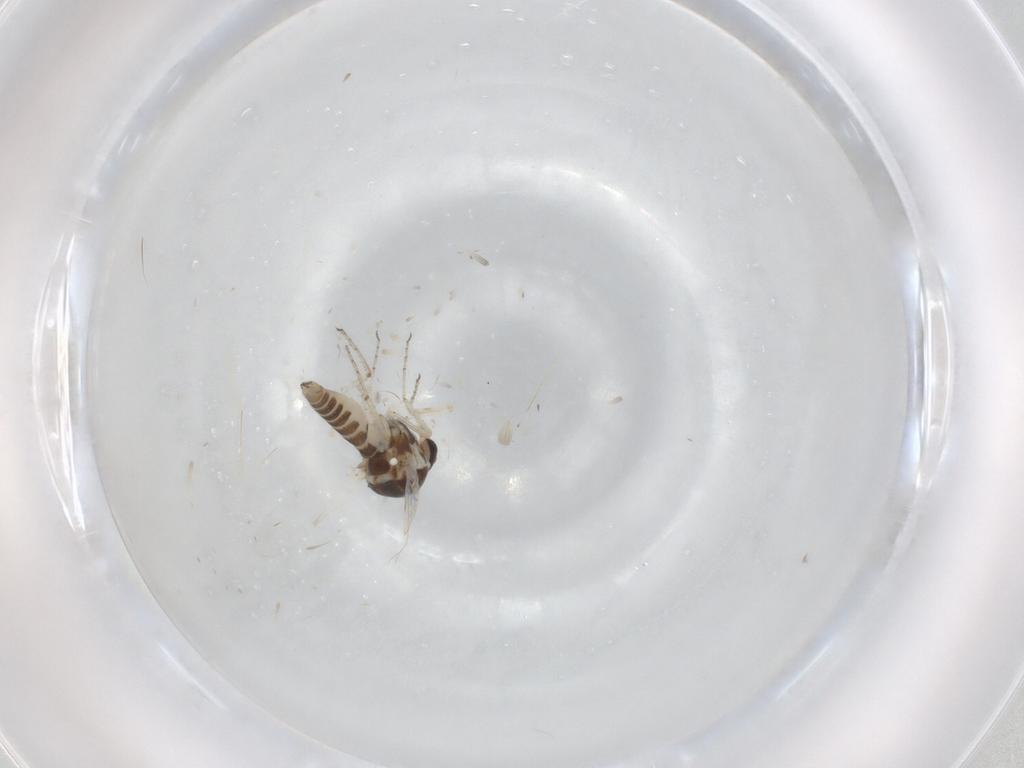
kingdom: Animalia
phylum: Arthropoda
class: Insecta
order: Diptera
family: Ceratopogonidae
